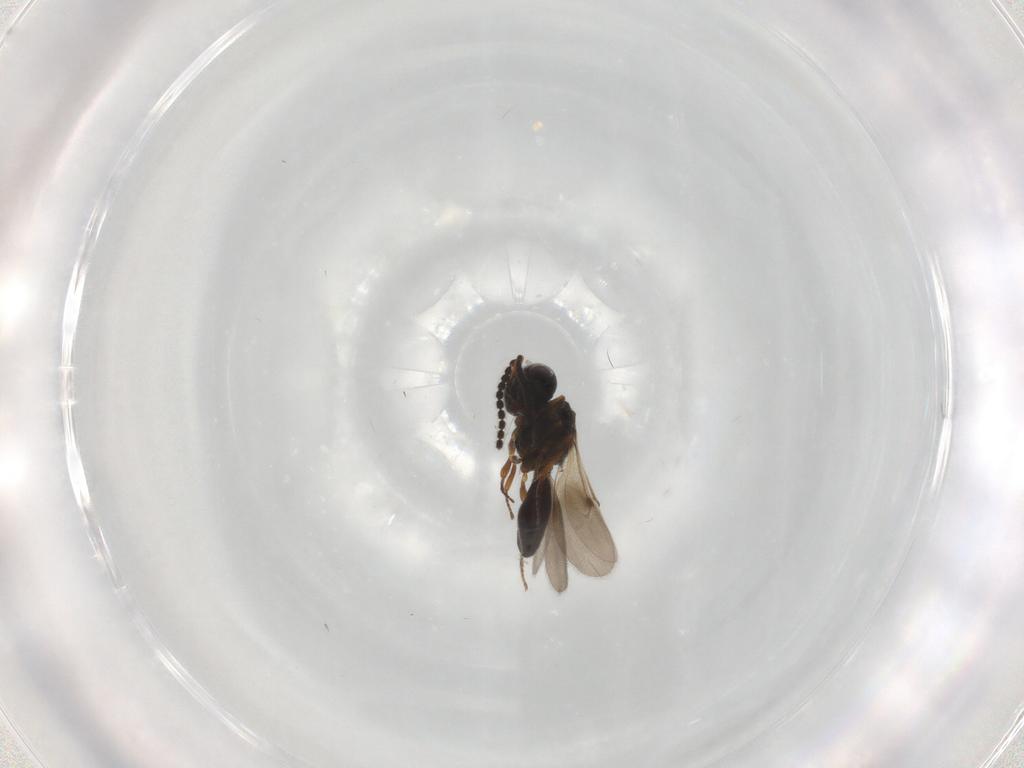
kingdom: Animalia
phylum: Arthropoda
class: Insecta
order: Hymenoptera
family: Scelionidae
